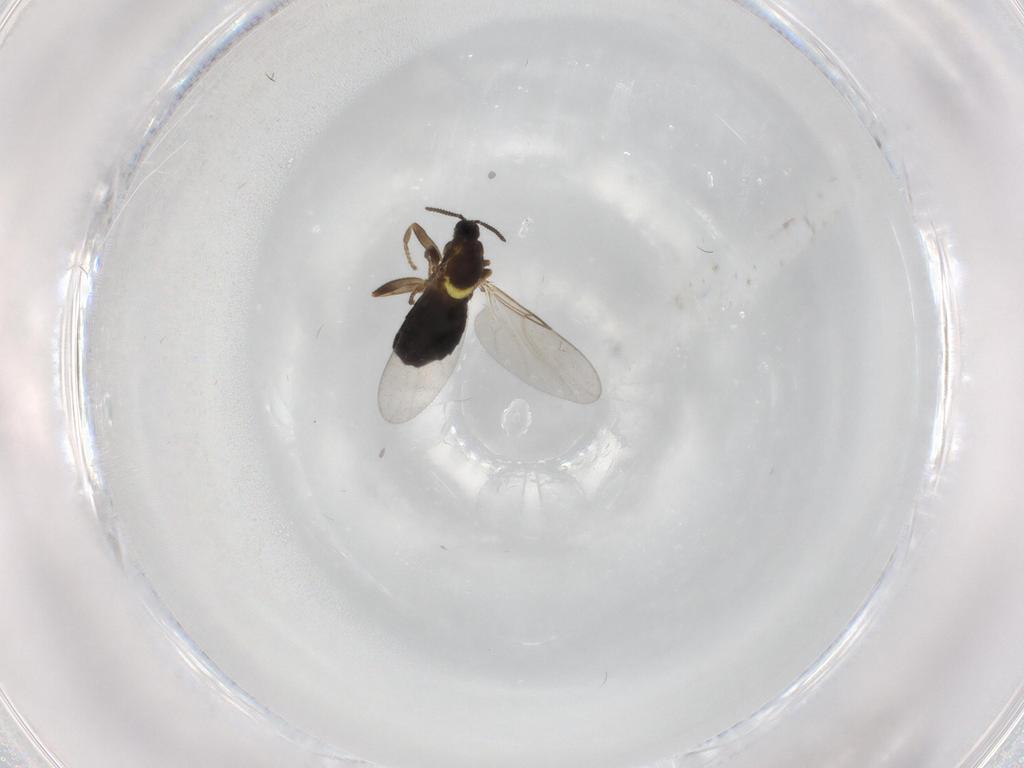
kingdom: Animalia
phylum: Arthropoda
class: Insecta
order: Diptera
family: Scatopsidae
